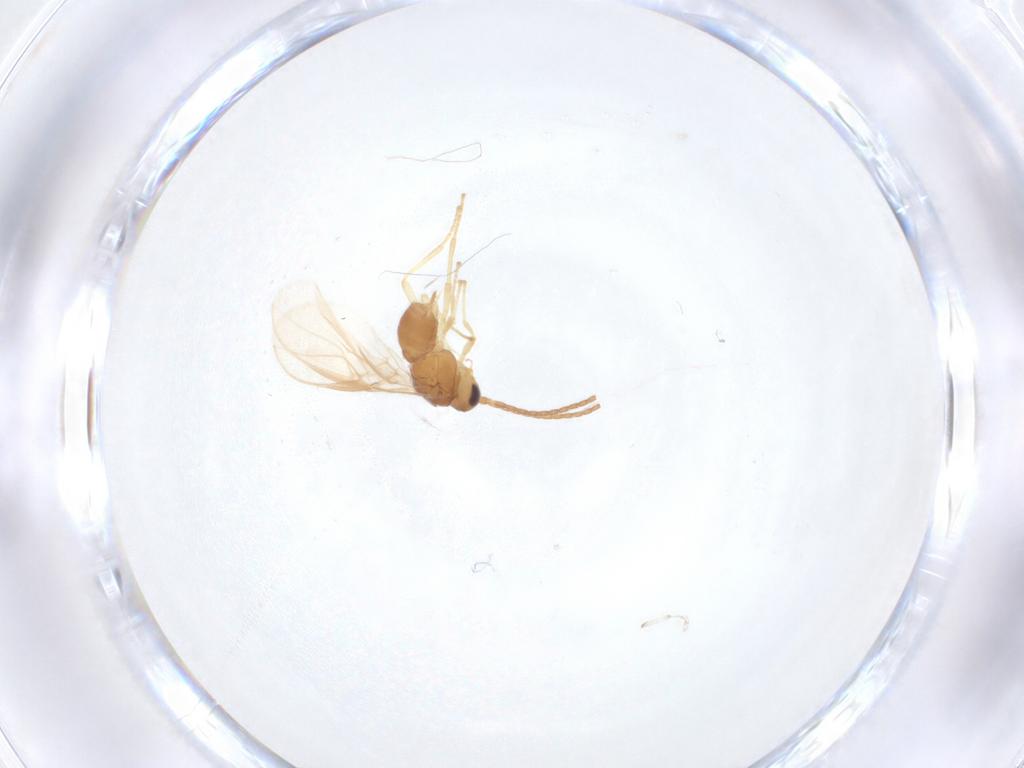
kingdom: Animalia
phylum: Arthropoda
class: Insecta
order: Hymenoptera
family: Braconidae
